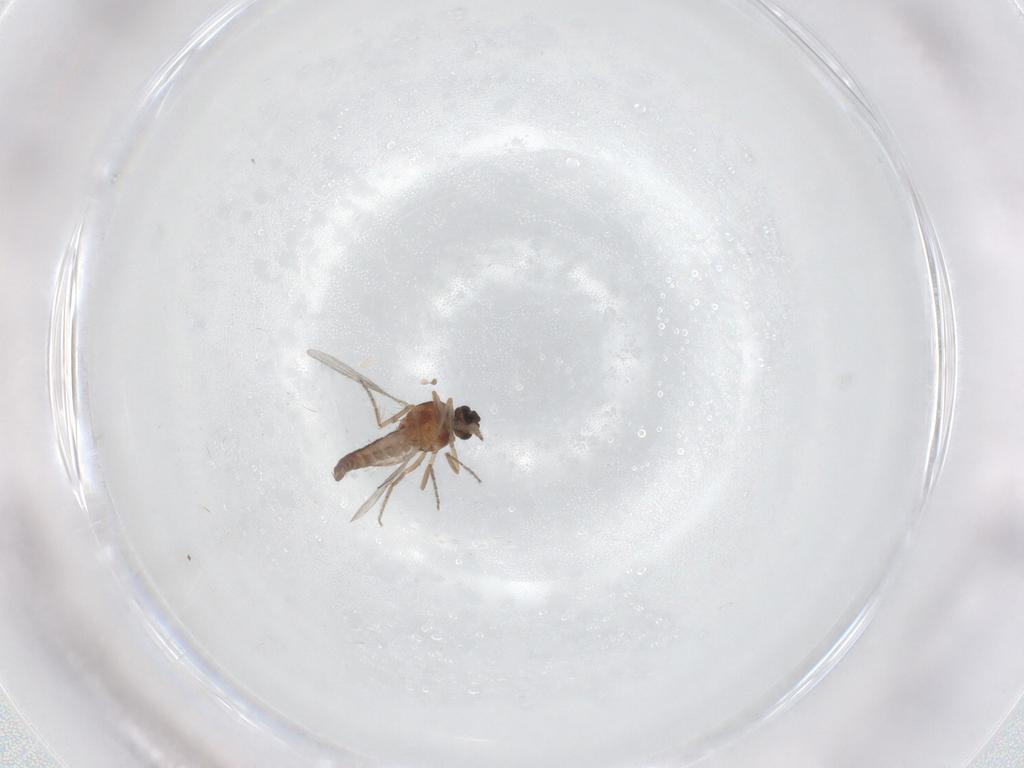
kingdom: Animalia
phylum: Arthropoda
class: Insecta
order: Diptera
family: Ceratopogonidae
